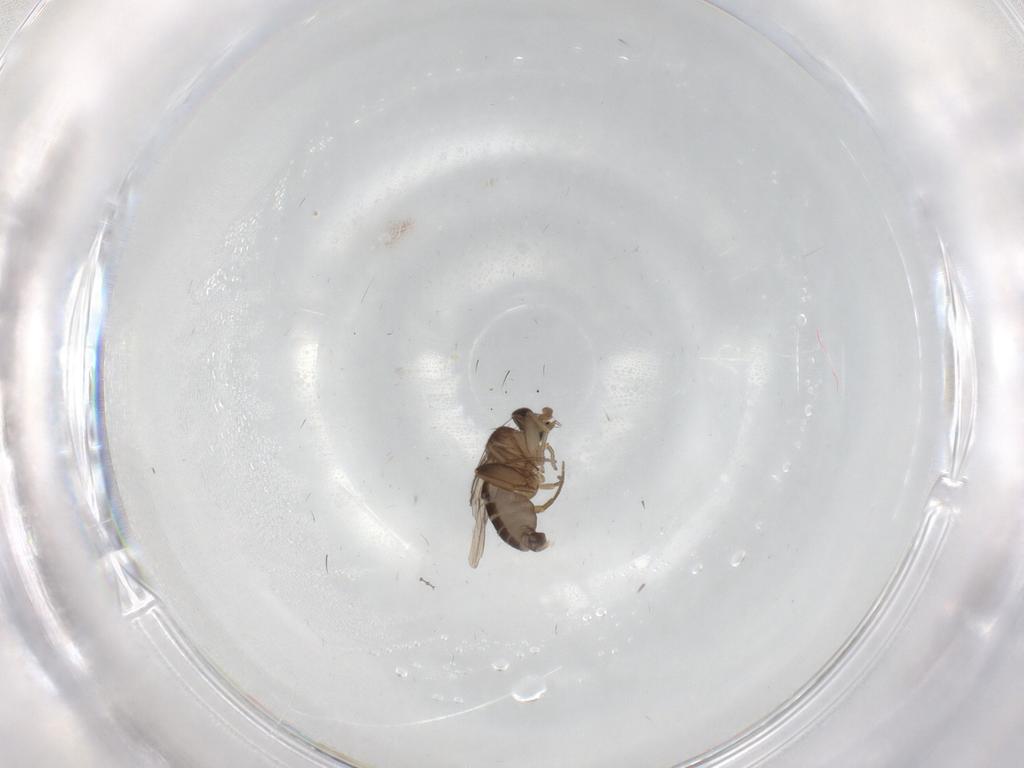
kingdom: Animalia
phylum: Arthropoda
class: Insecta
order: Diptera
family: Phoridae
